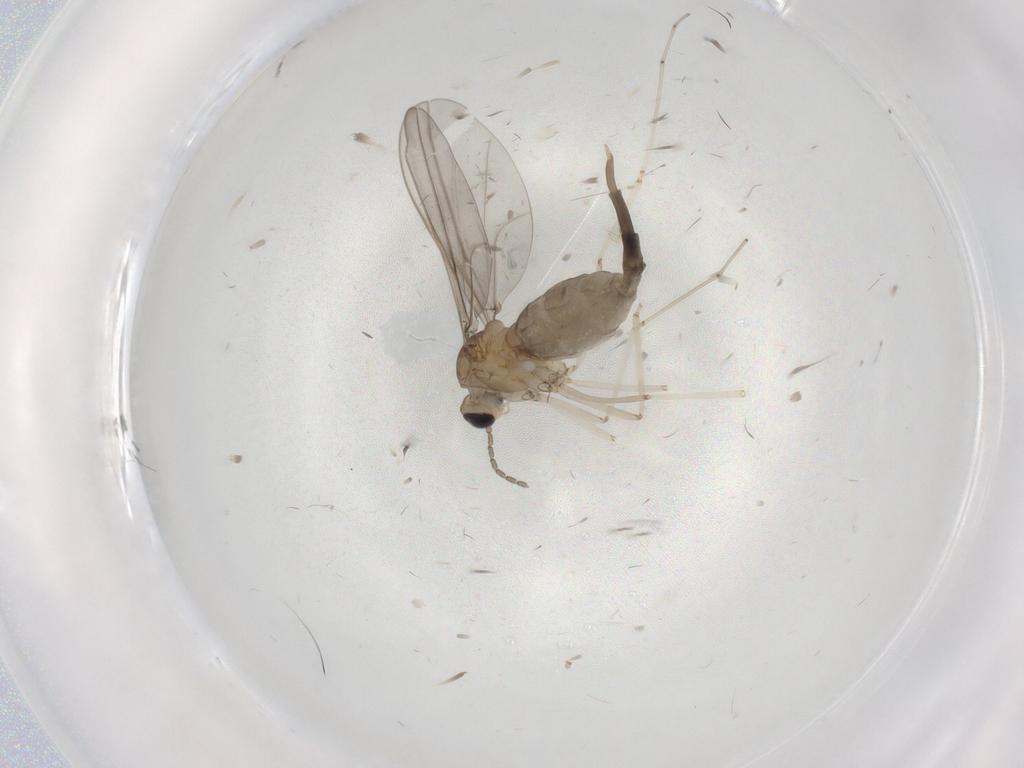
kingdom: Animalia
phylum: Arthropoda
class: Insecta
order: Diptera
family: Cecidomyiidae
